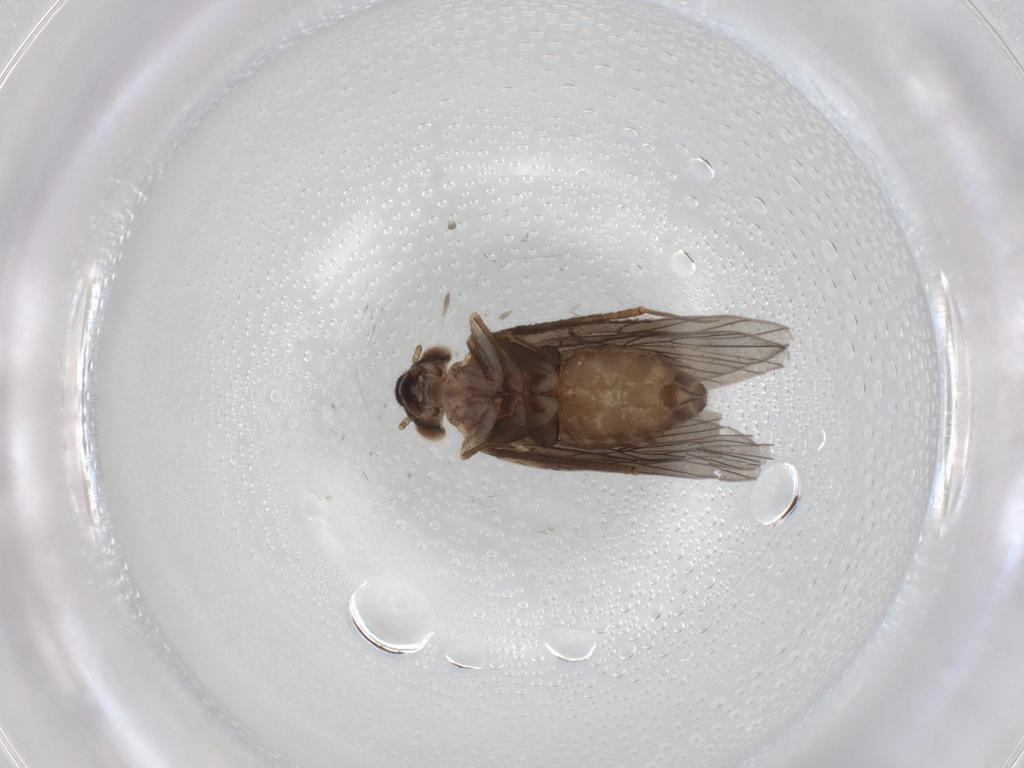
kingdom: Animalia
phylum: Arthropoda
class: Insecta
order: Psocodea
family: Lepidopsocidae
